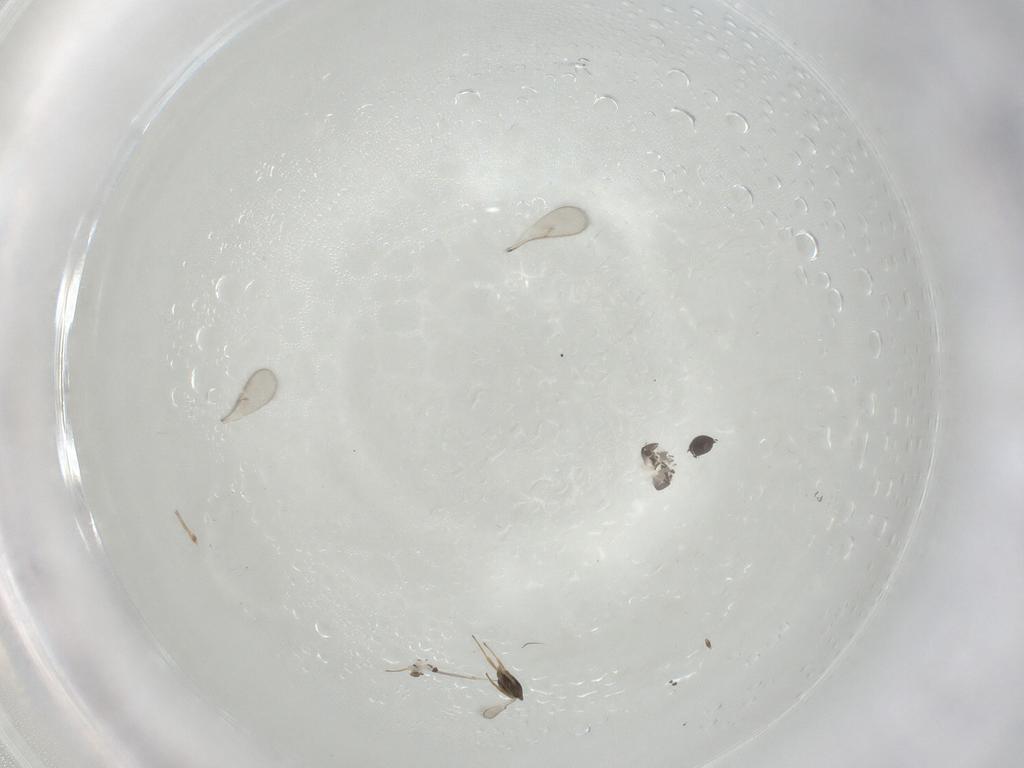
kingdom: Animalia
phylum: Arthropoda
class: Insecta
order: Hymenoptera
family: Scelionidae
